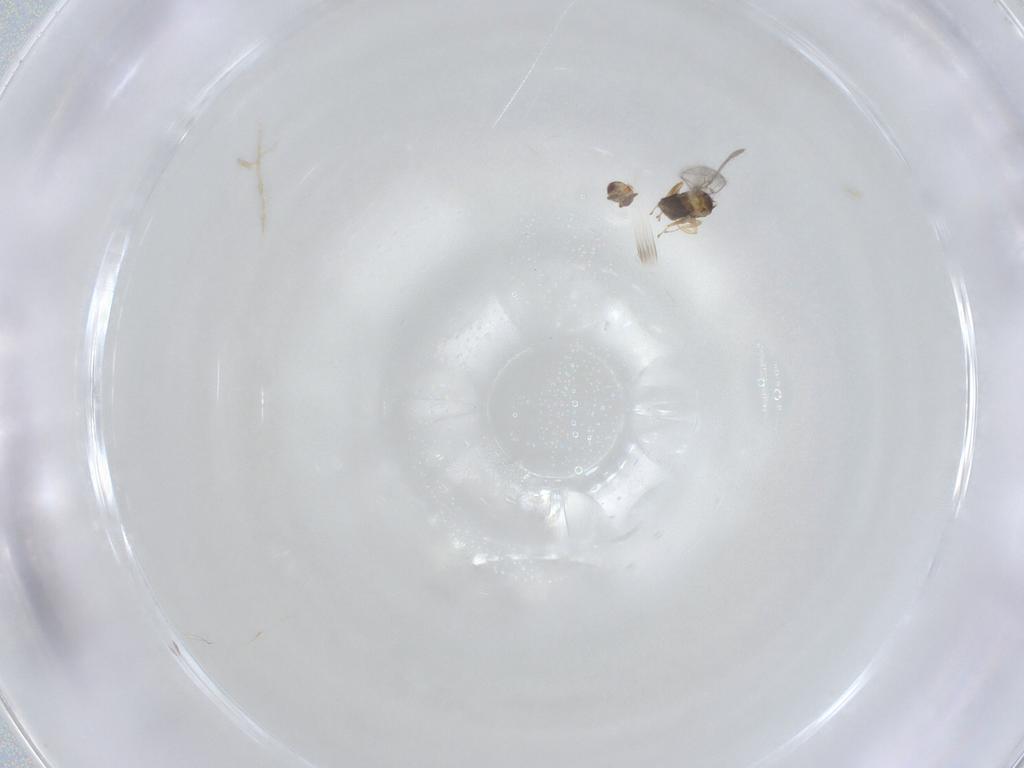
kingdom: Animalia
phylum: Arthropoda
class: Insecta
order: Hymenoptera
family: Trichogrammatidae
